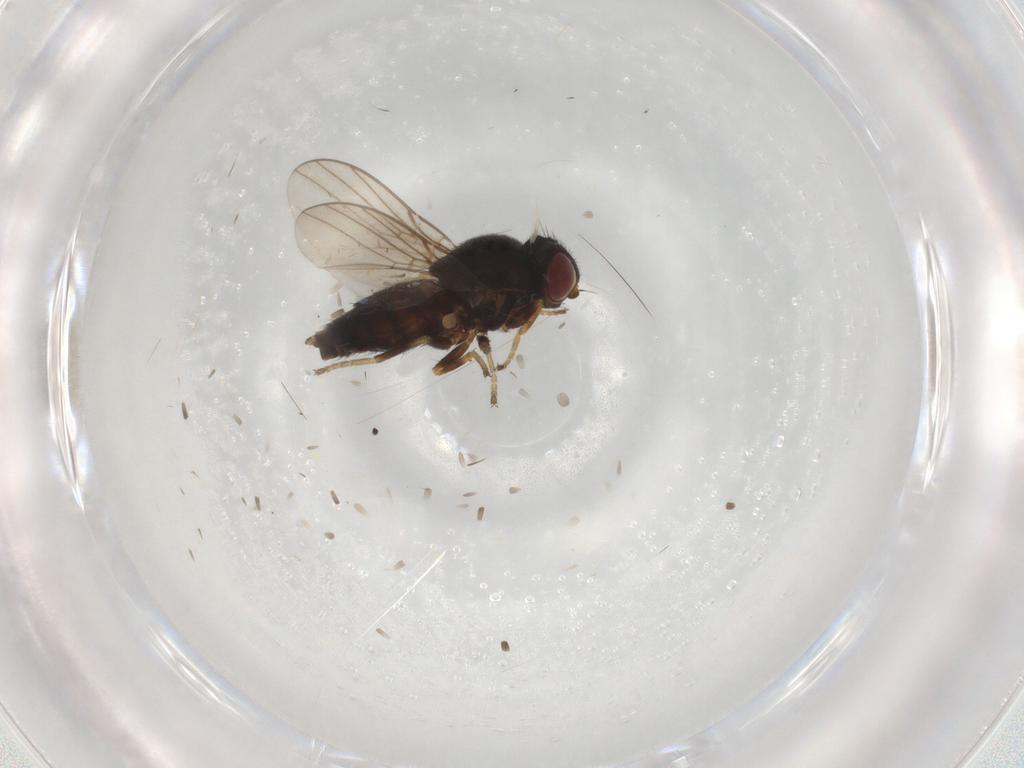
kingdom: Animalia
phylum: Arthropoda
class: Insecta
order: Diptera
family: Chloropidae
